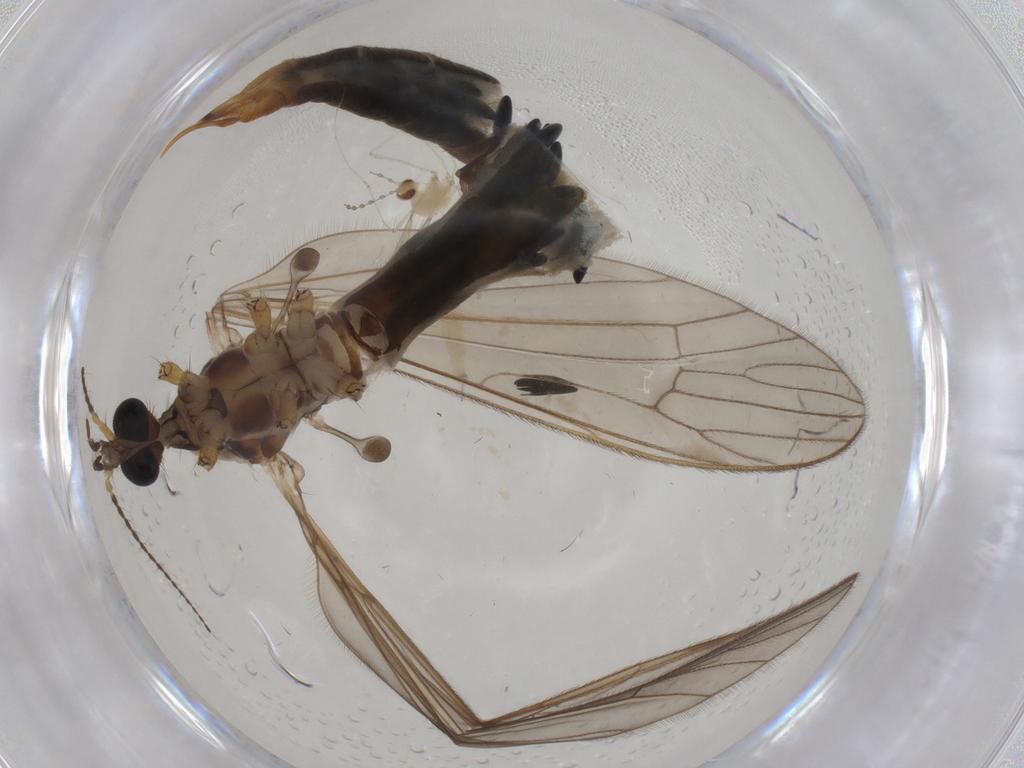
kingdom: Animalia
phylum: Arthropoda
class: Insecta
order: Diptera
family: Limoniidae
